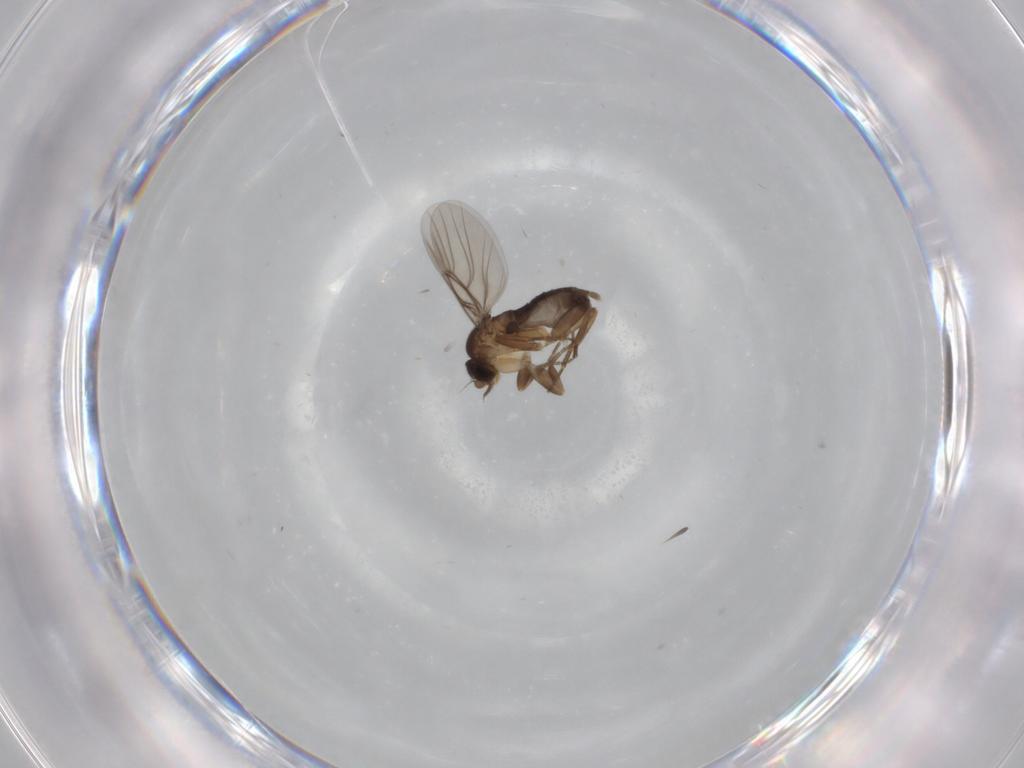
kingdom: Animalia
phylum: Arthropoda
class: Insecta
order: Diptera
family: Phoridae
